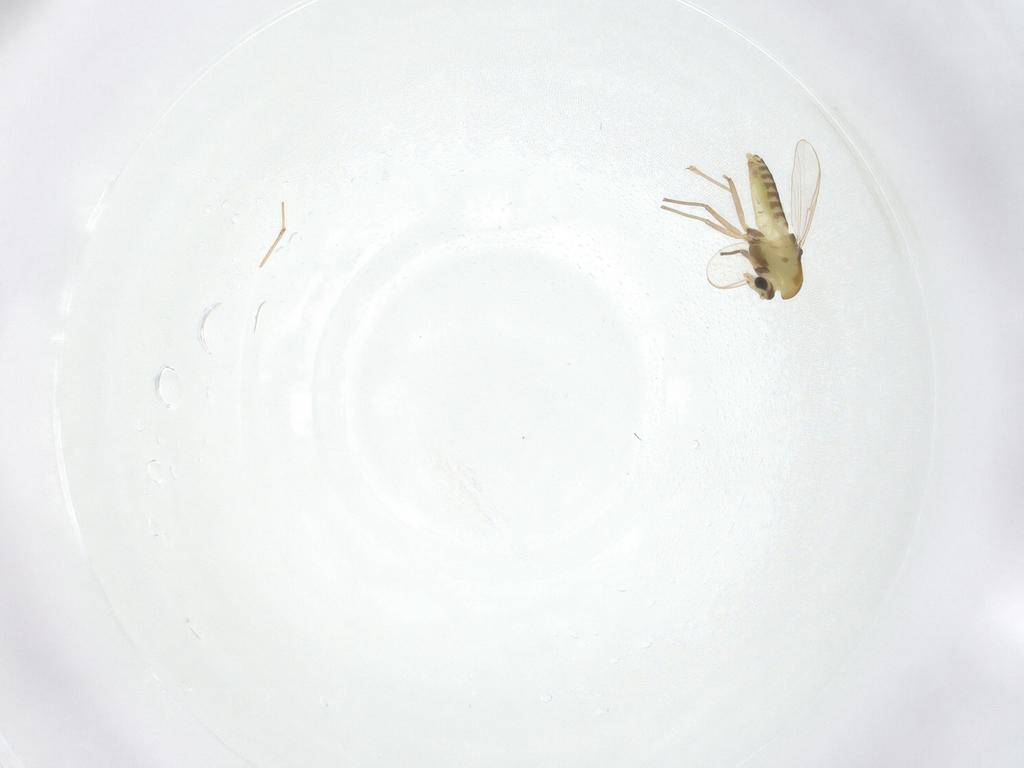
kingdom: Animalia
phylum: Arthropoda
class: Insecta
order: Diptera
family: Chironomidae
